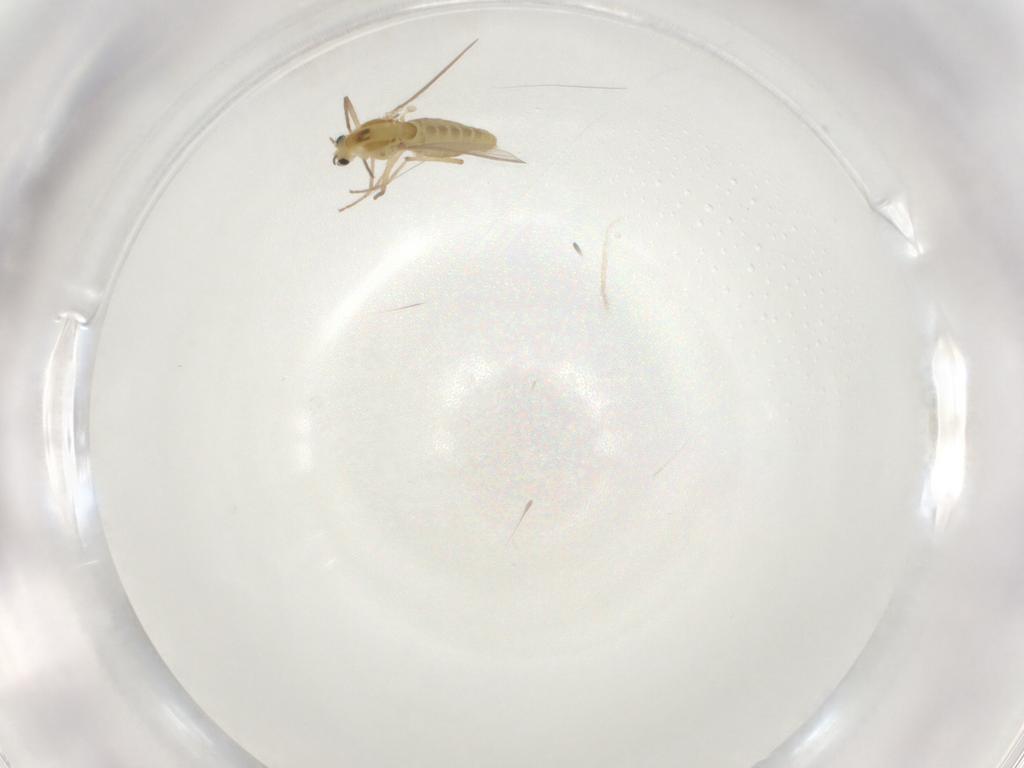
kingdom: Animalia
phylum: Arthropoda
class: Insecta
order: Diptera
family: Chironomidae
